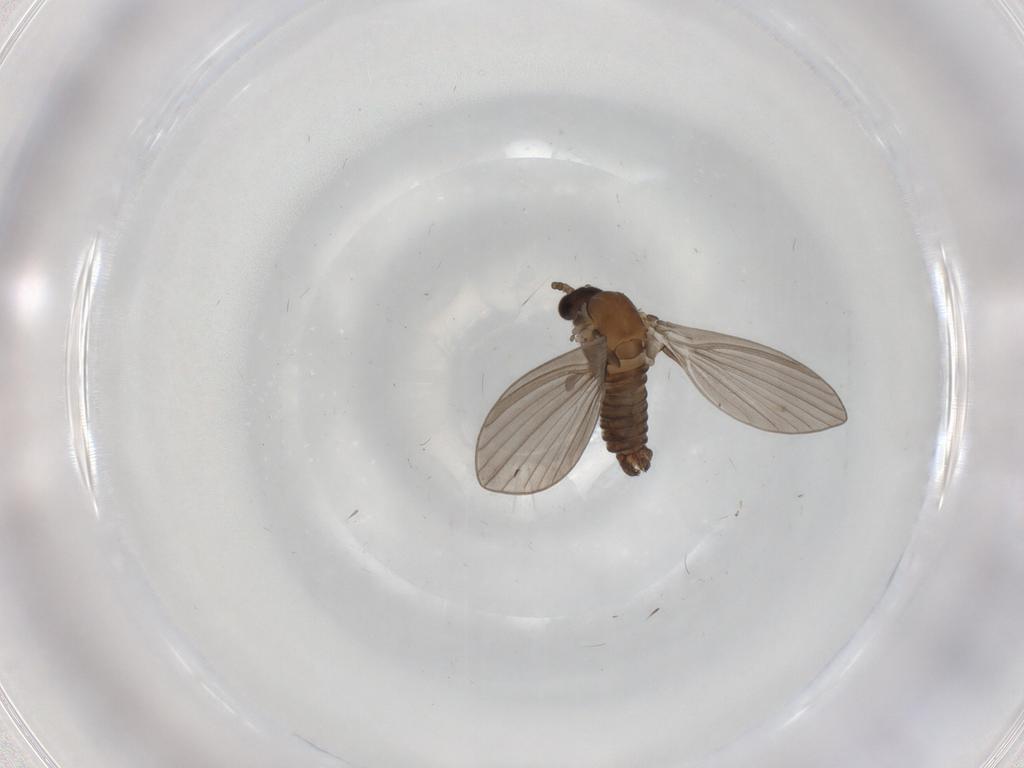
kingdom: Animalia
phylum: Arthropoda
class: Insecta
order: Diptera
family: Psychodidae
